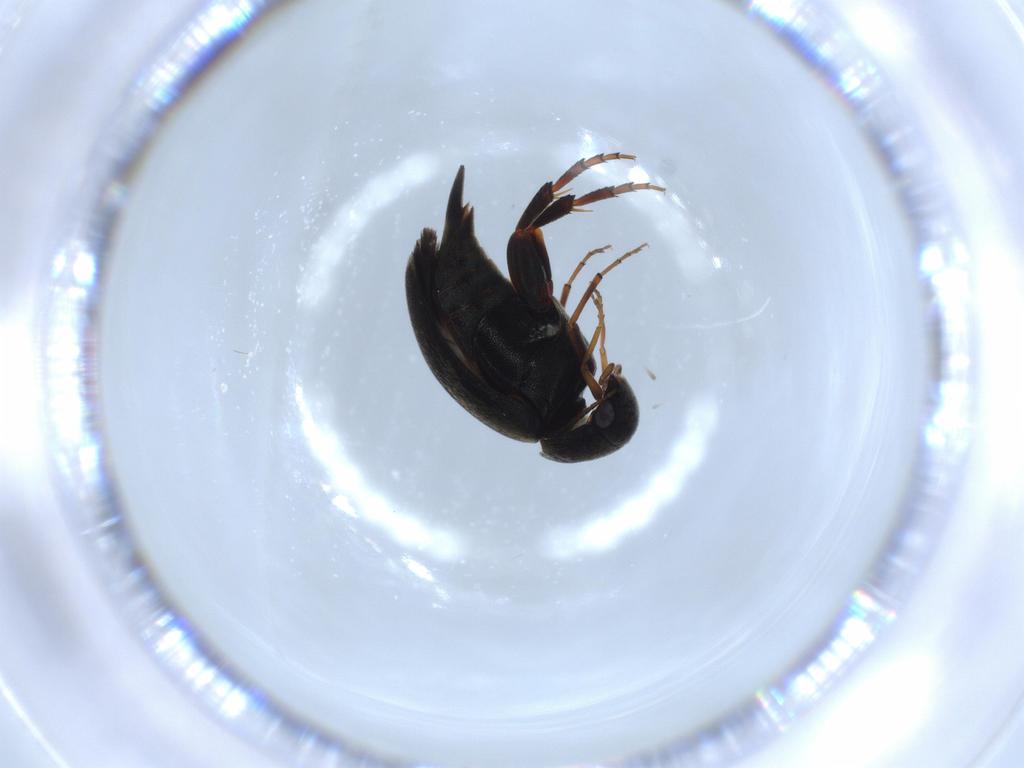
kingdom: Animalia
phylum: Arthropoda
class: Insecta
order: Coleoptera
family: Mordellidae
